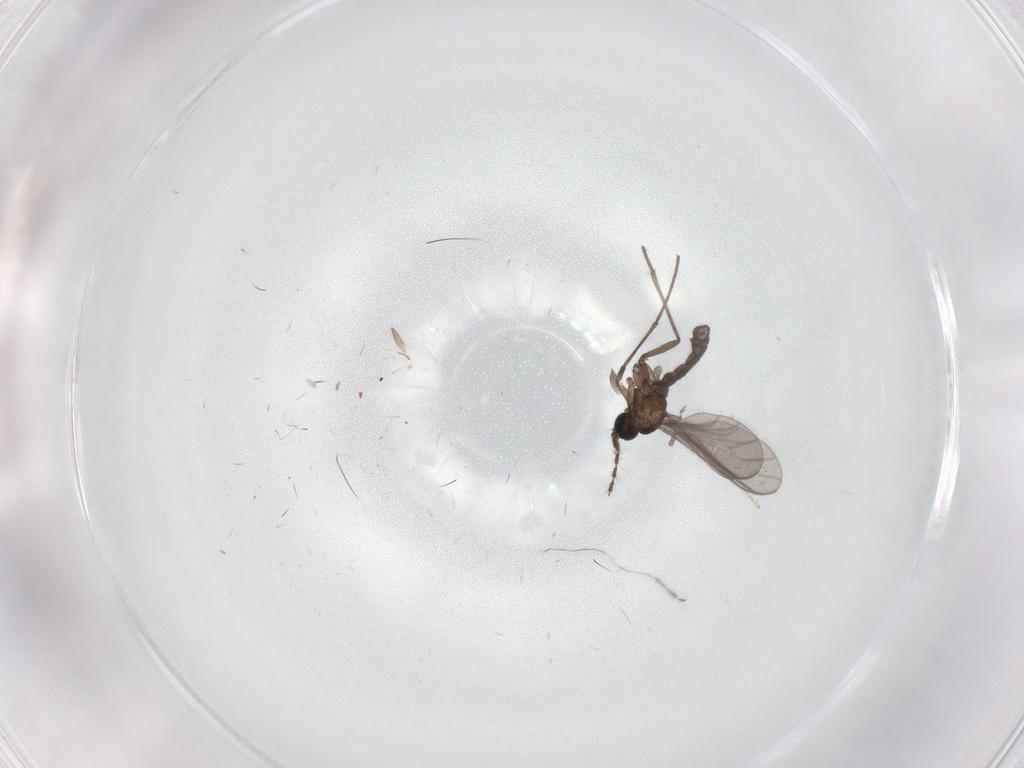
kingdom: Animalia
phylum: Arthropoda
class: Insecta
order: Diptera
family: Sciaridae
